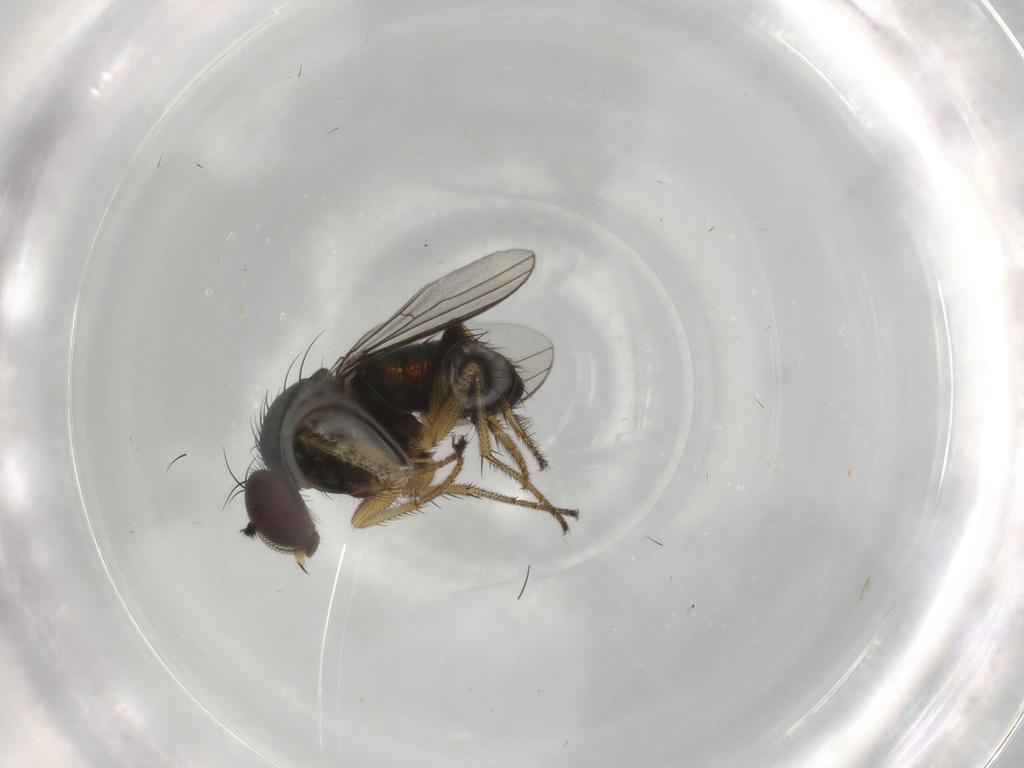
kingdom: Animalia
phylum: Arthropoda
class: Insecta
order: Diptera
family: Dolichopodidae
